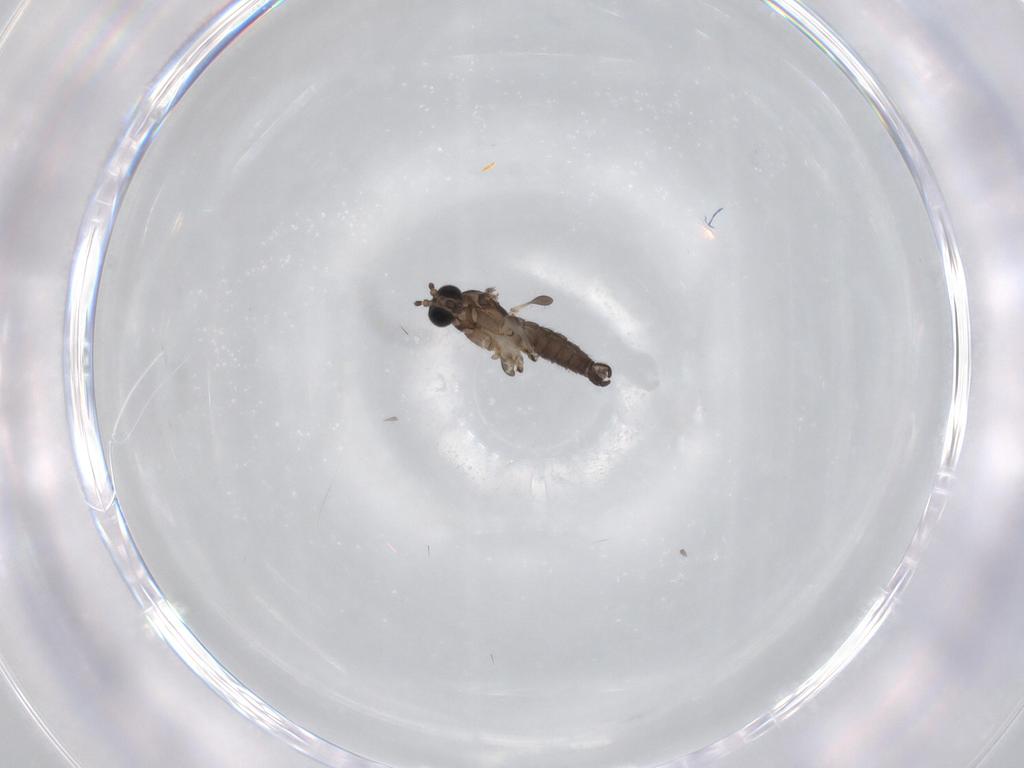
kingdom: Animalia
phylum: Arthropoda
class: Insecta
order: Diptera
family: Sciaridae
